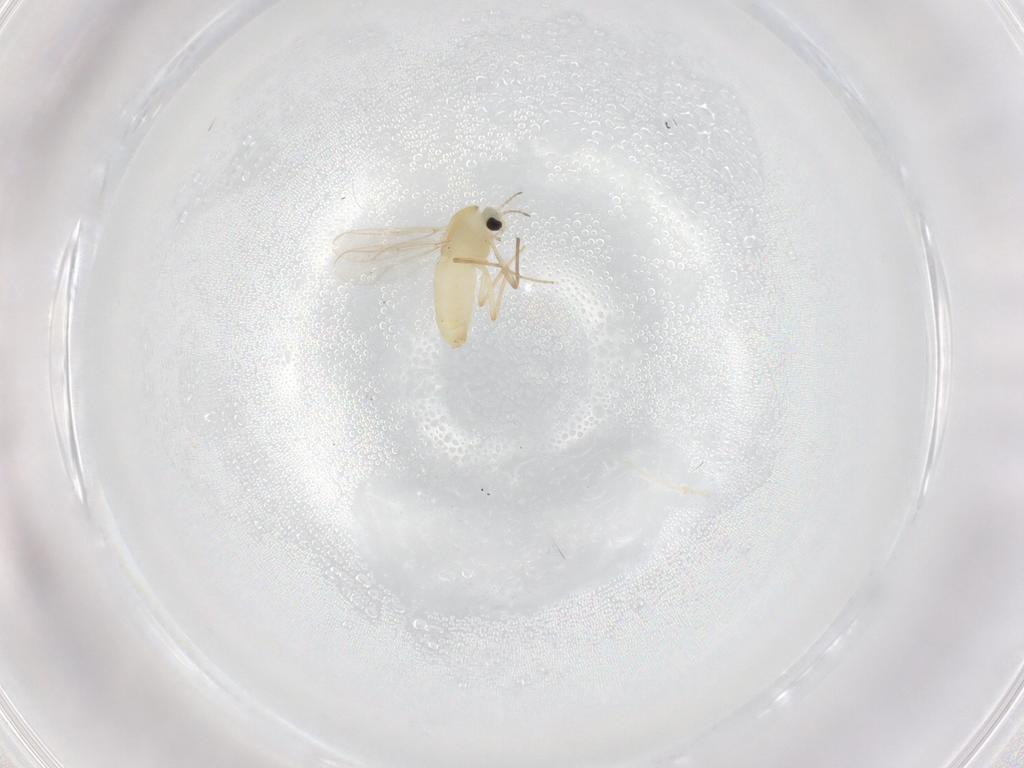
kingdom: Animalia
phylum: Arthropoda
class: Insecta
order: Diptera
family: Chironomidae
